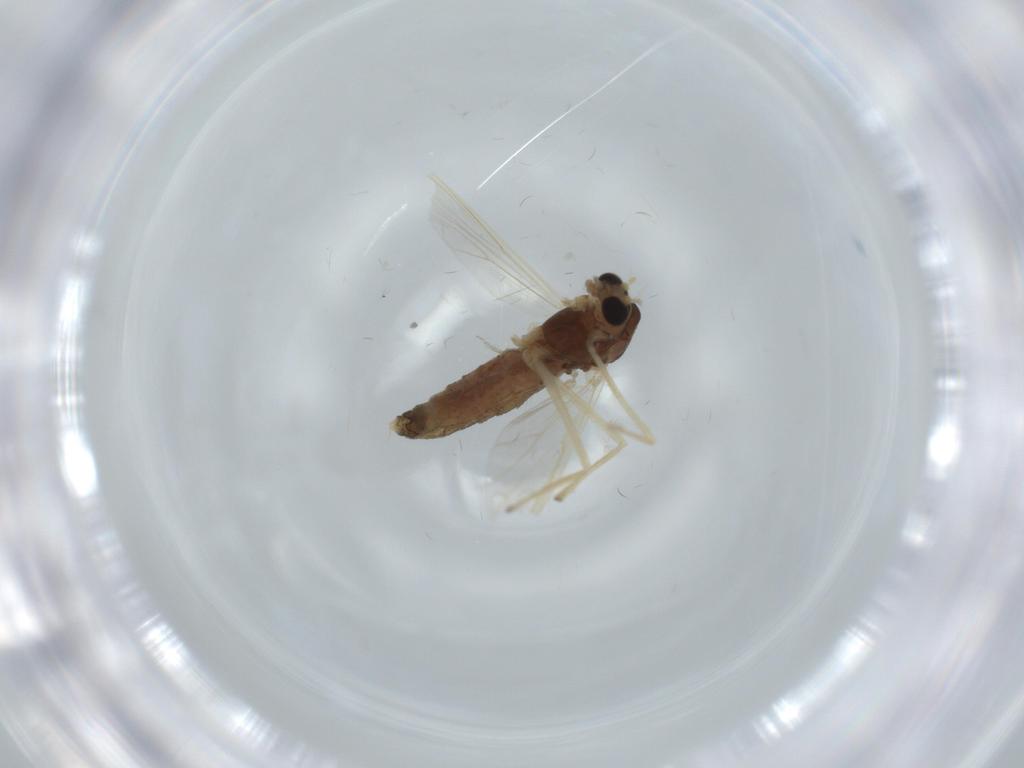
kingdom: Animalia
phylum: Arthropoda
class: Insecta
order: Diptera
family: Chironomidae
